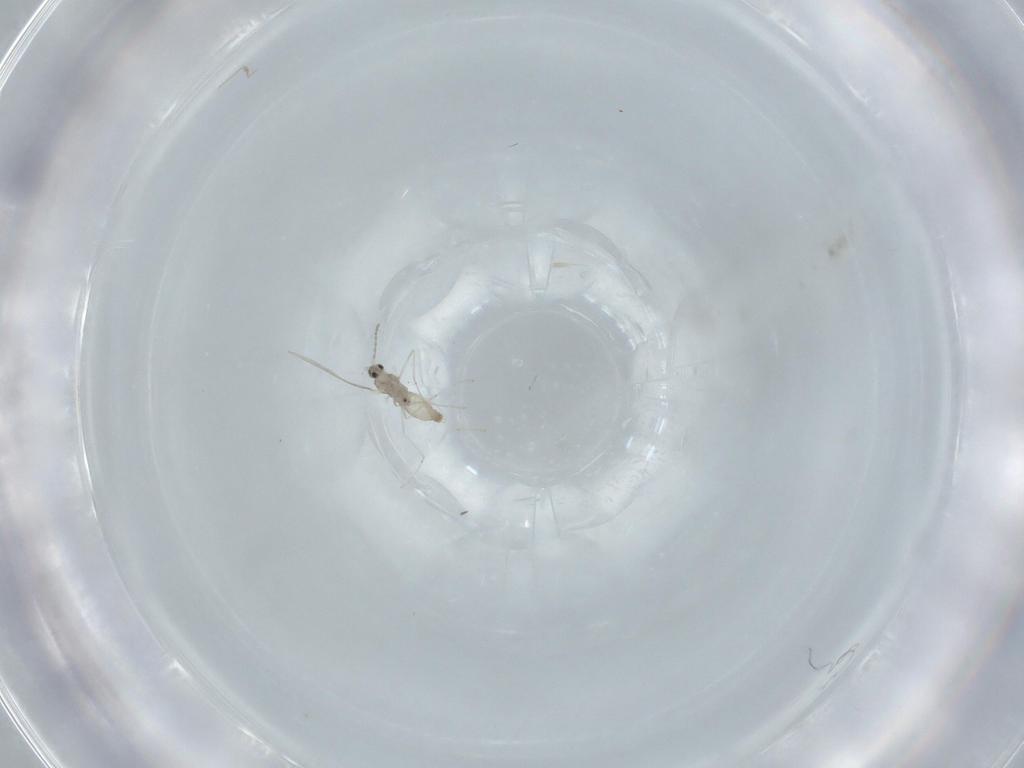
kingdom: Animalia
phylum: Arthropoda
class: Insecta
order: Diptera
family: Cecidomyiidae
